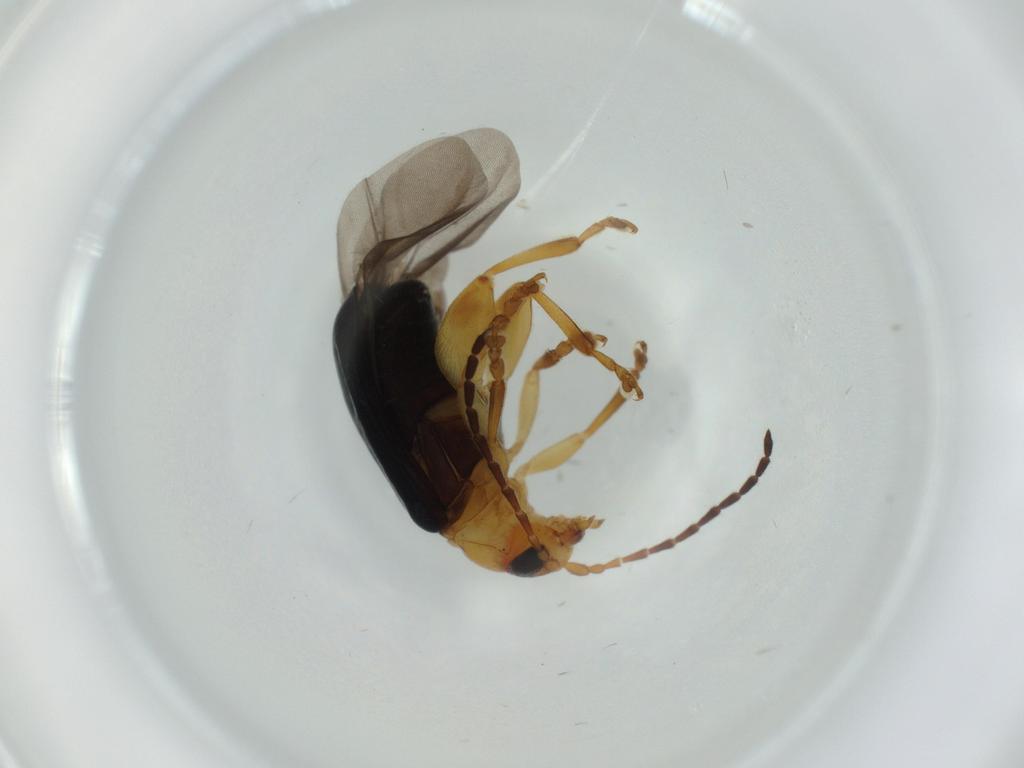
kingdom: Animalia
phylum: Arthropoda
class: Insecta
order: Coleoptera
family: Chrysomelidae
